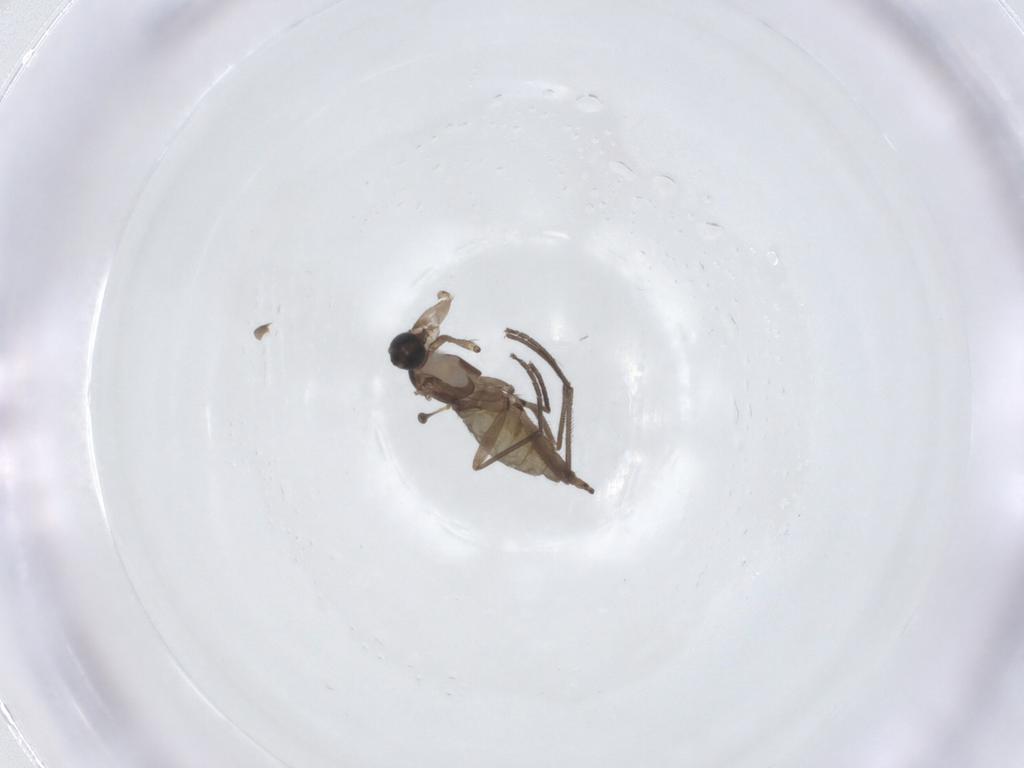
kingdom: Animalia
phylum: Arthropoda
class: Insecta
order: Diptera
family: Sciaridae
